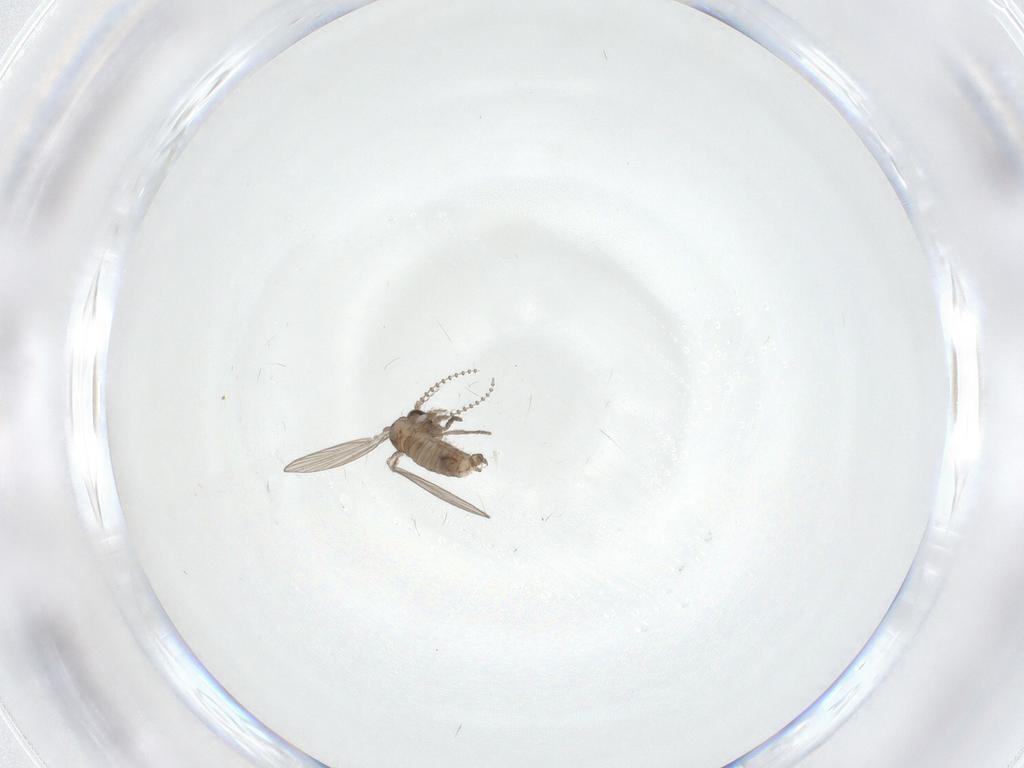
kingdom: Animalia
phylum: Arthropoda
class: Insecta
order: Diptera
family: Psychodidae
